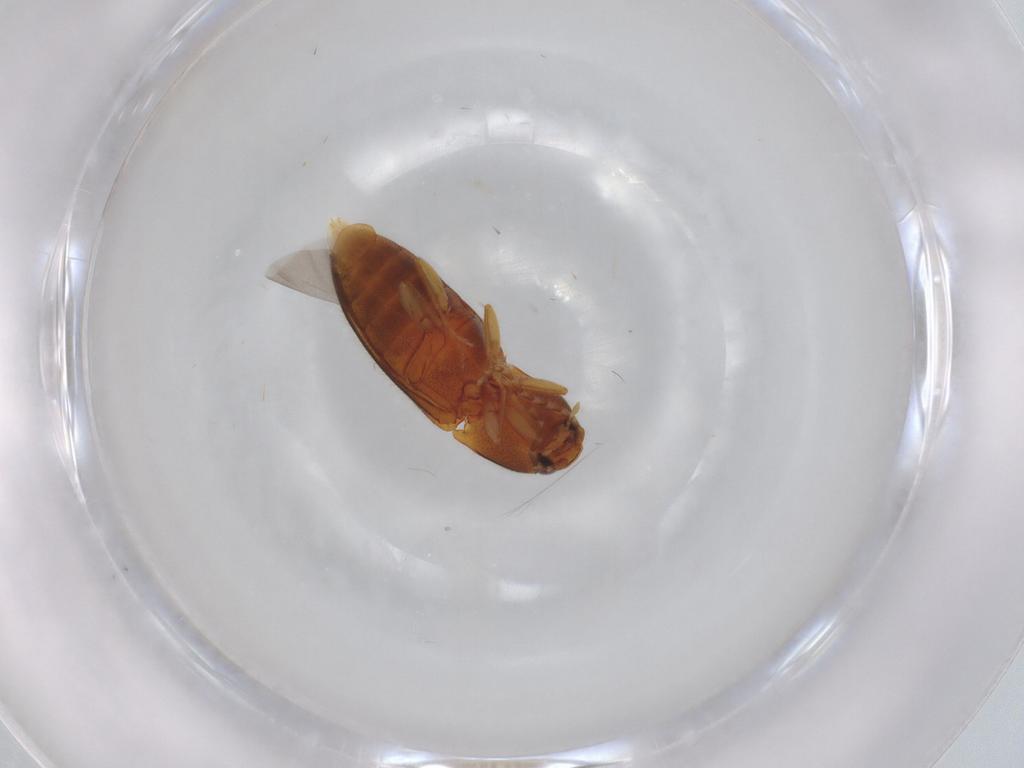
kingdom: Animalia
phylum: Arthropoda
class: Insecta
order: Coleoptera
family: Elateridae
